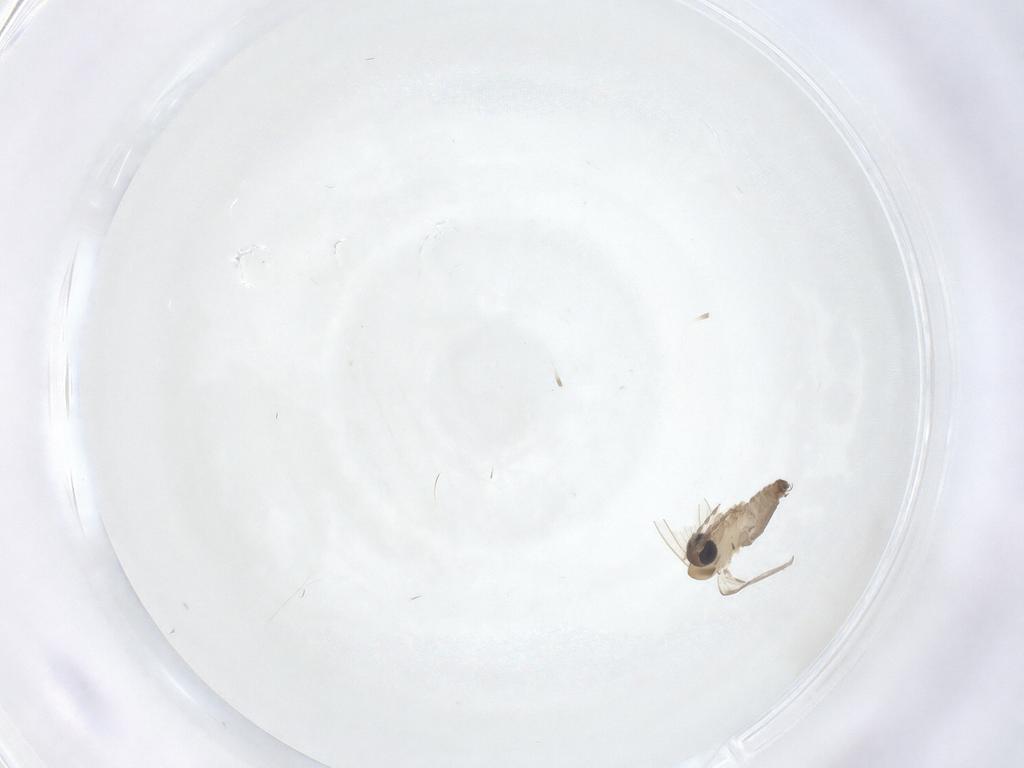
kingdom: Animalia
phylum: Arthropoda
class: Insecta
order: Diptera
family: Psychodidae
